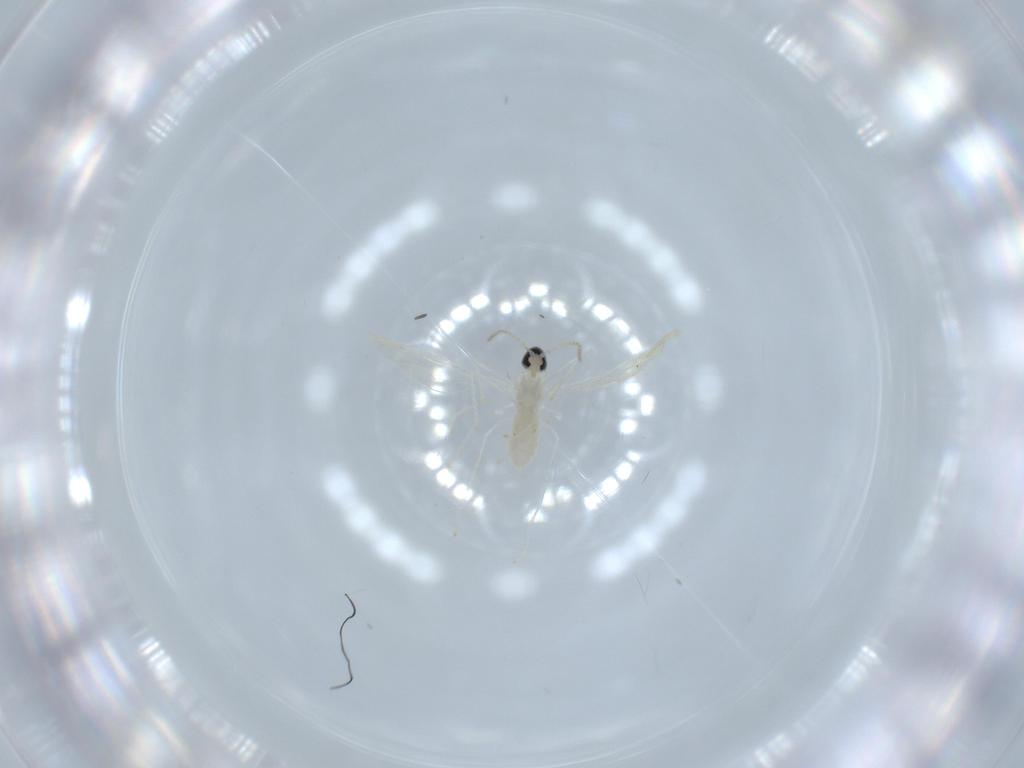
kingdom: Animalia
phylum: Arthropoda
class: Insecta
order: Diptera
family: Cecidomyiidae
